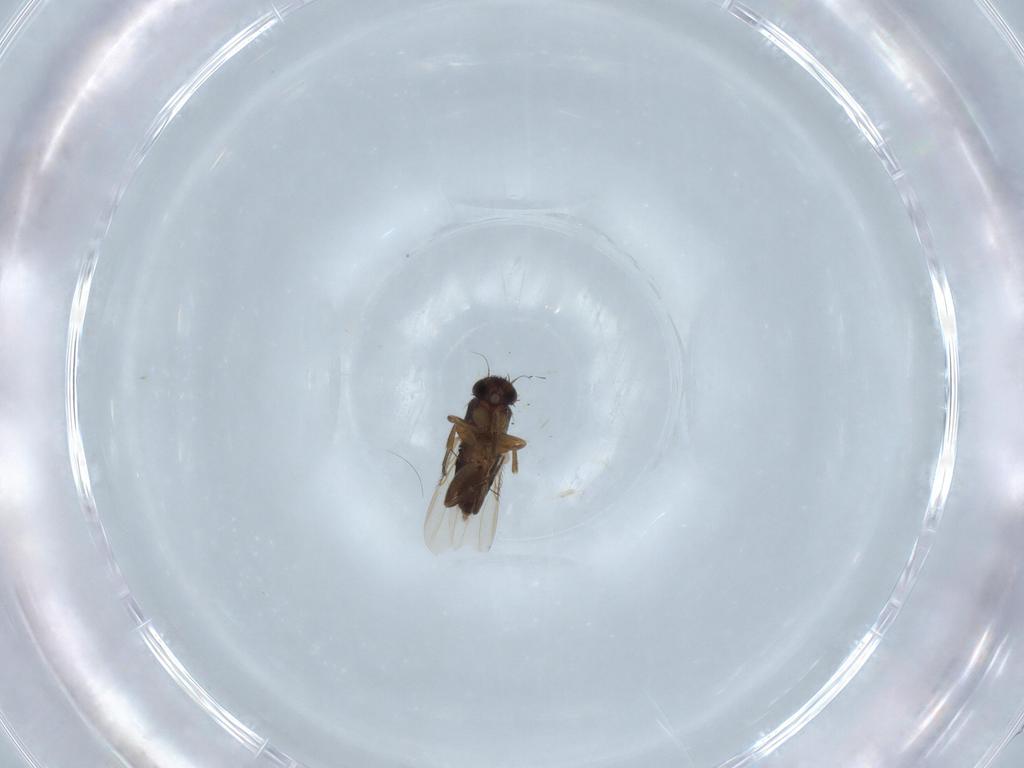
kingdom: Animalia
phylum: Arthropoda
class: Insecta
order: Diptera
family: Phoridae
